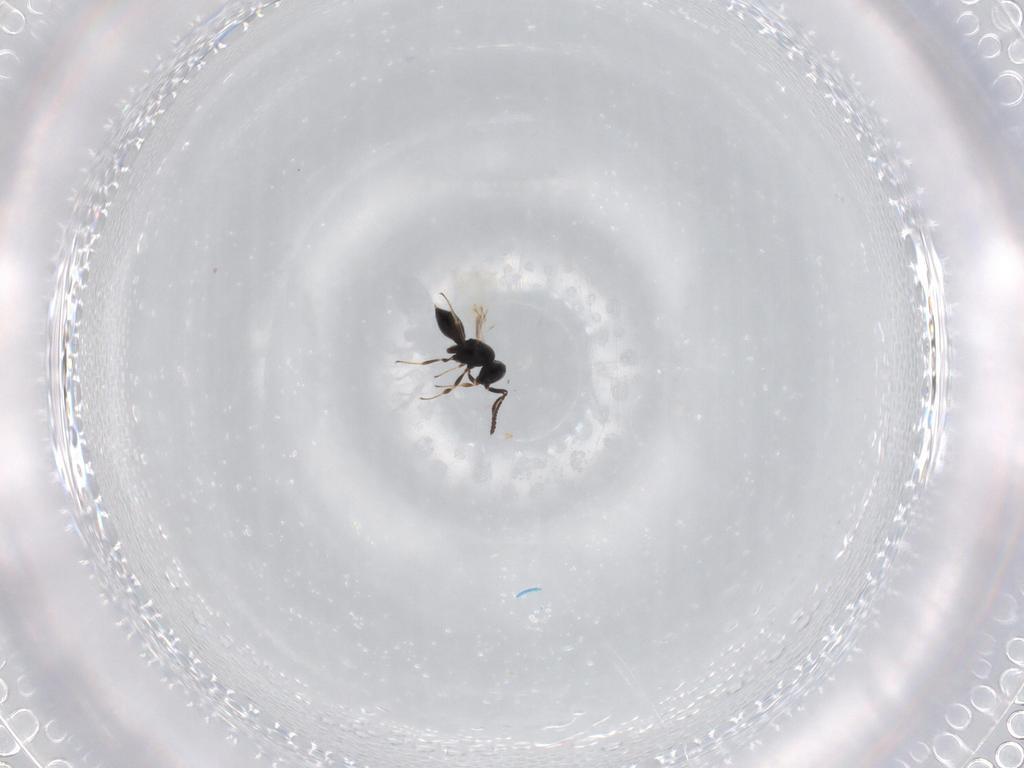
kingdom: Animalia
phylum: Arthropoda
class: Insecta
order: Hymenoptera
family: Scelionidae
